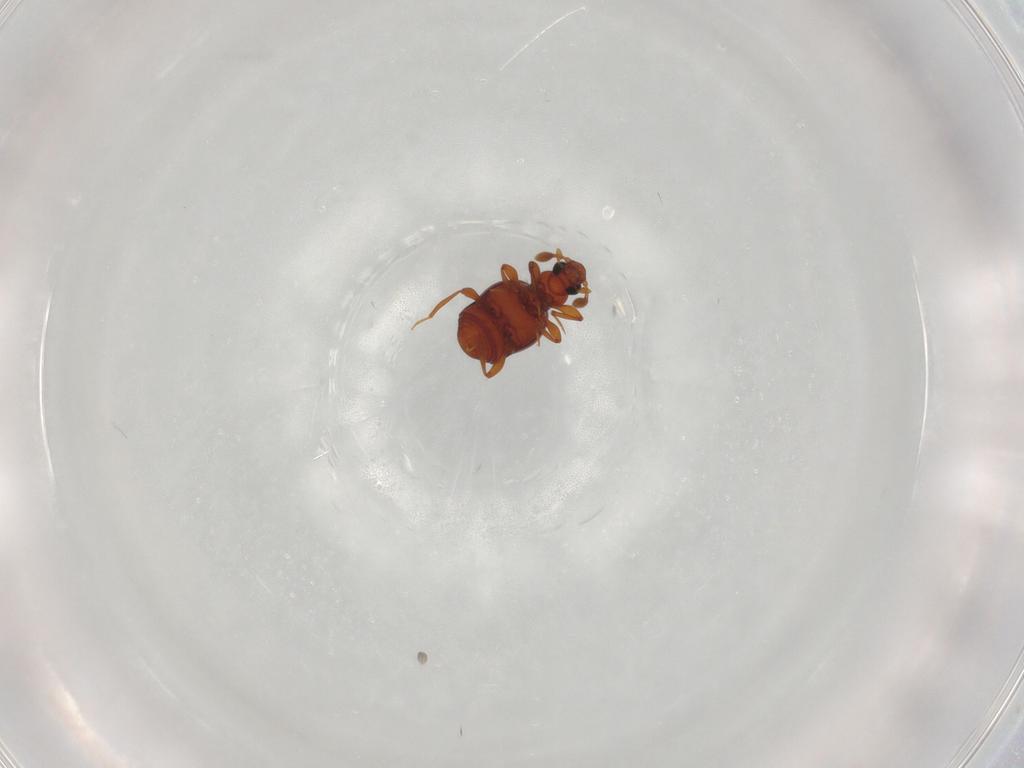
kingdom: Animalia
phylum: Arthropoda
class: Insecta
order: Coleoptera
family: Staphylinidae
